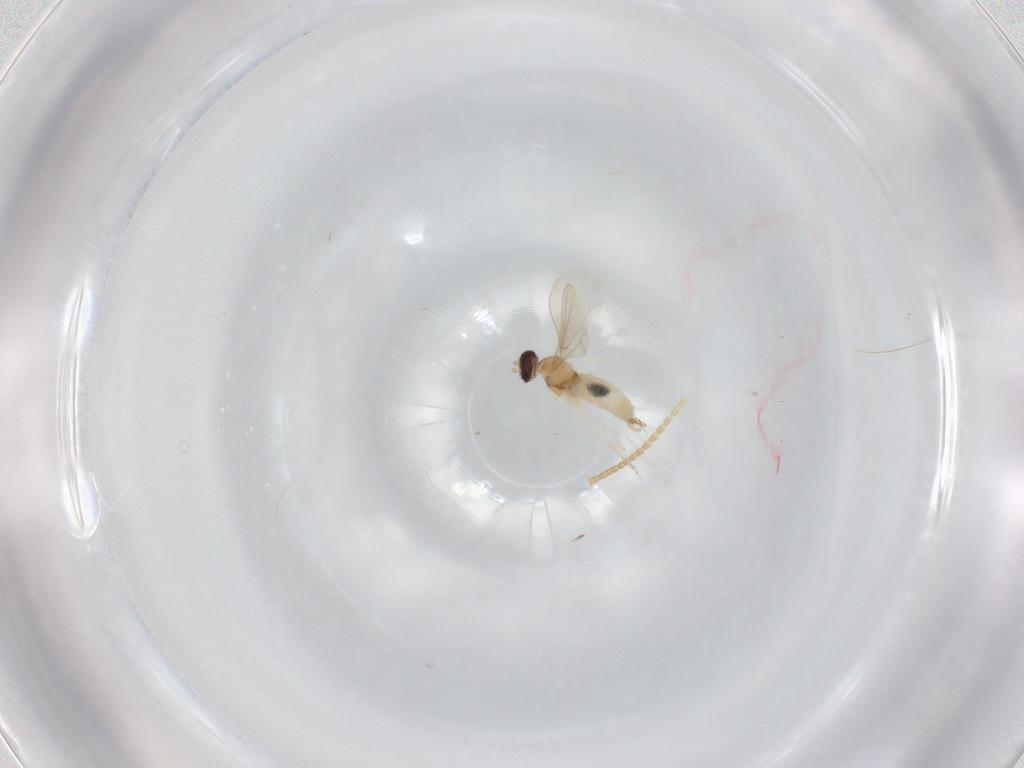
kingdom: Animalia
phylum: Arthropoda
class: Insecta
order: Diptera
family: Cecidomyiidae
